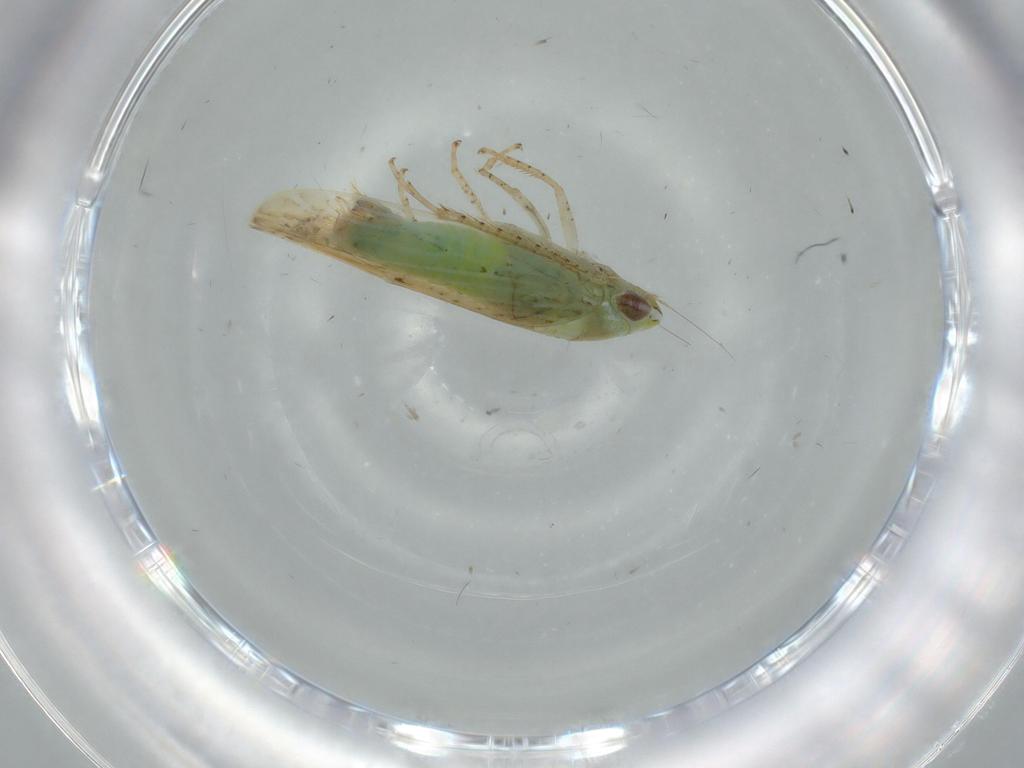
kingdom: Animalia
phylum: Arthropoda
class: Insecta
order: Hemiptera
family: Cicadellidae
